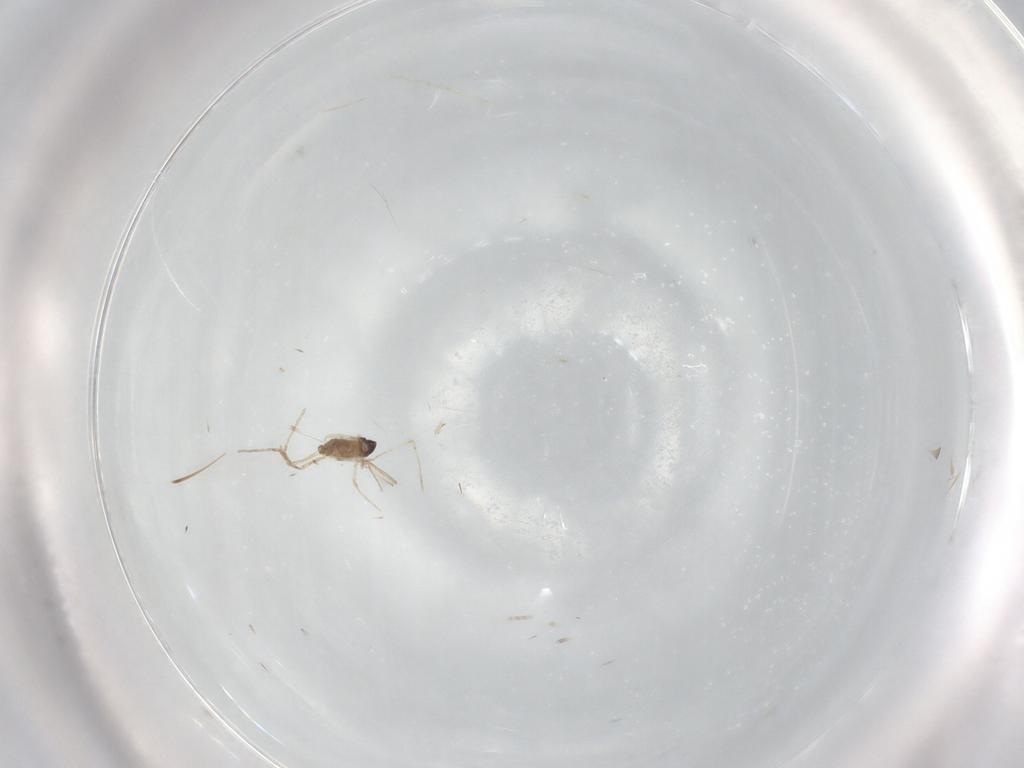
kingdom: Animalia
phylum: Arthropoda
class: Insecta
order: Diptera
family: Cecidomyiidae
